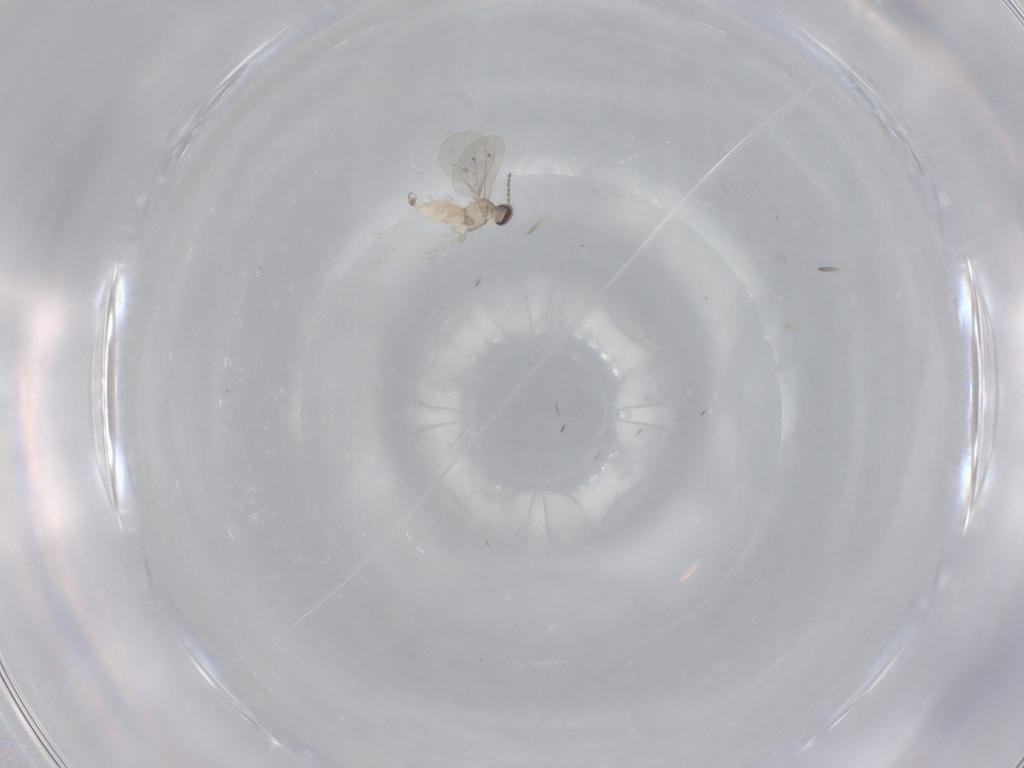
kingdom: Animalia
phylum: Arthropoda
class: Insecta
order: Diptera
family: Cecidomyiidae
